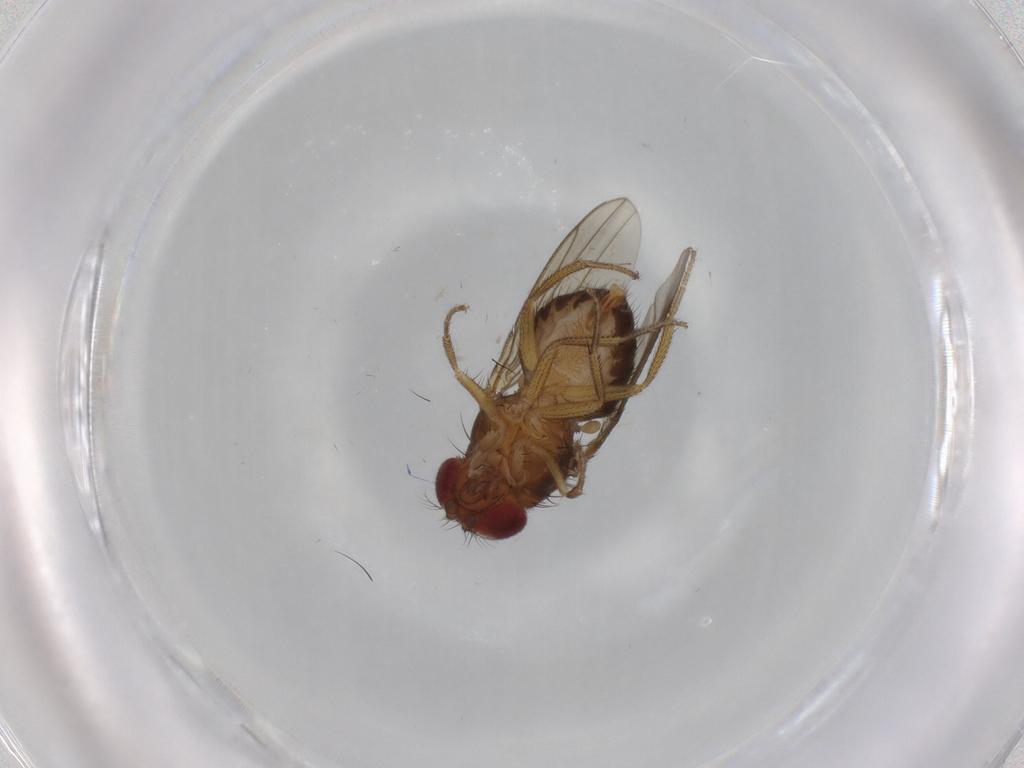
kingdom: Animalia
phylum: Arthropoda
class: Insecta
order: Diptera
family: Drosophilidae
